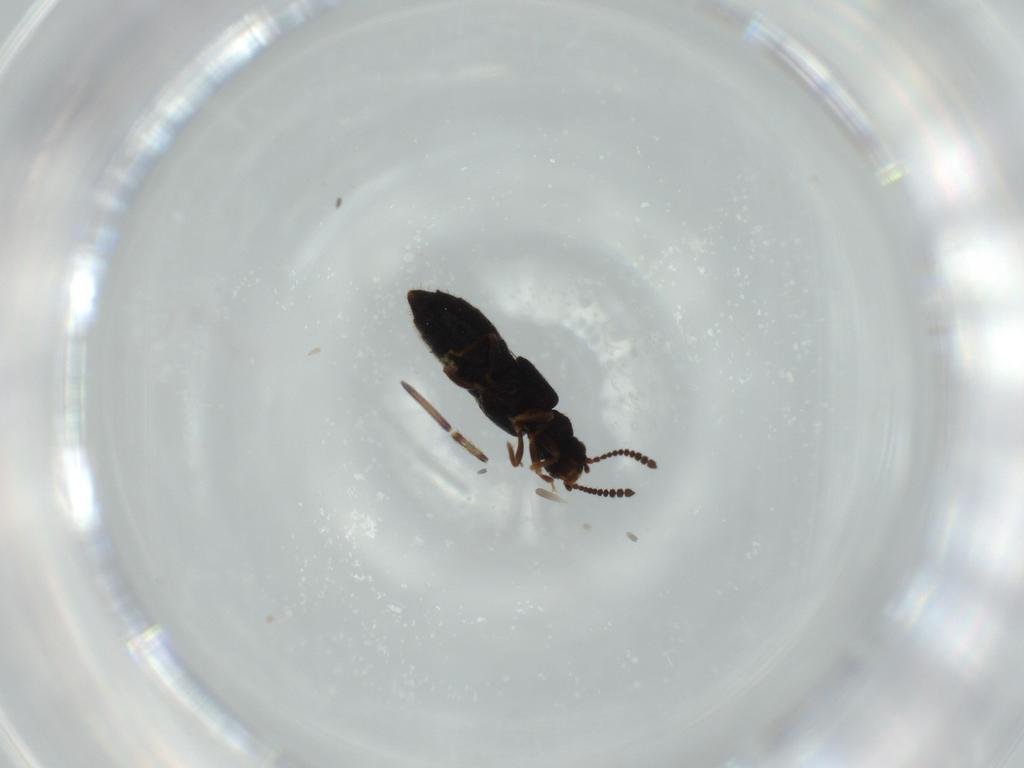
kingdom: Animalia
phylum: Arthropoda
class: Insecta
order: Coleoptera
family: Staphylinidae
